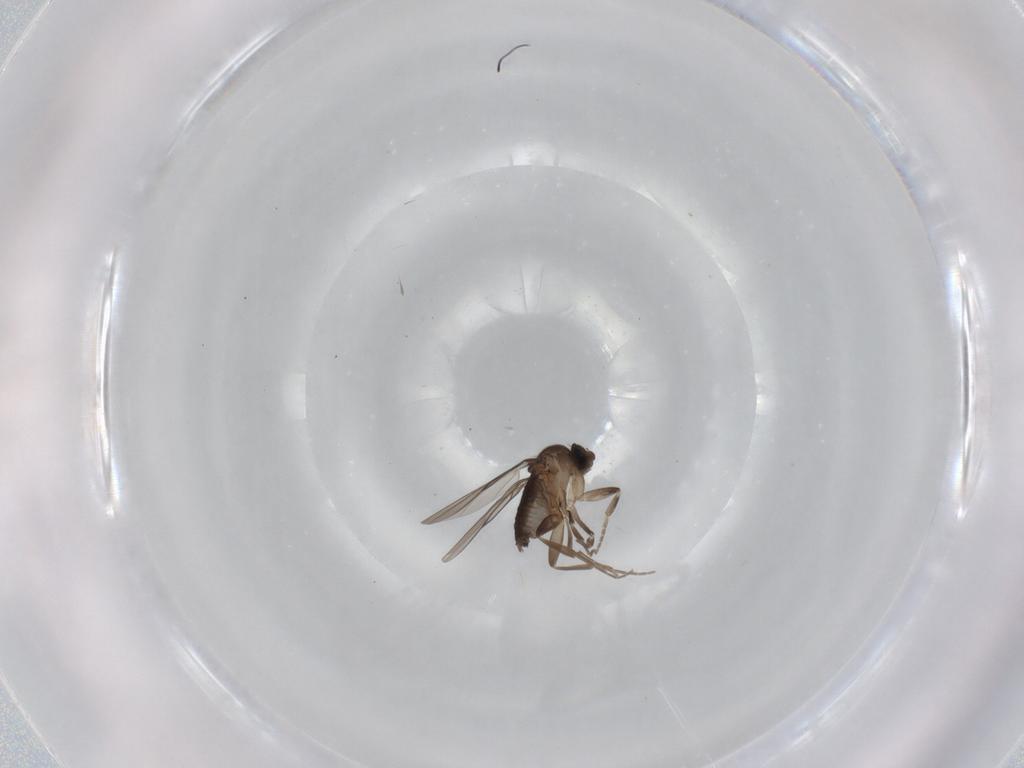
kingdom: Animalia
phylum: Arthropoda
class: Insecta
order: Diptera
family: Phoridae
